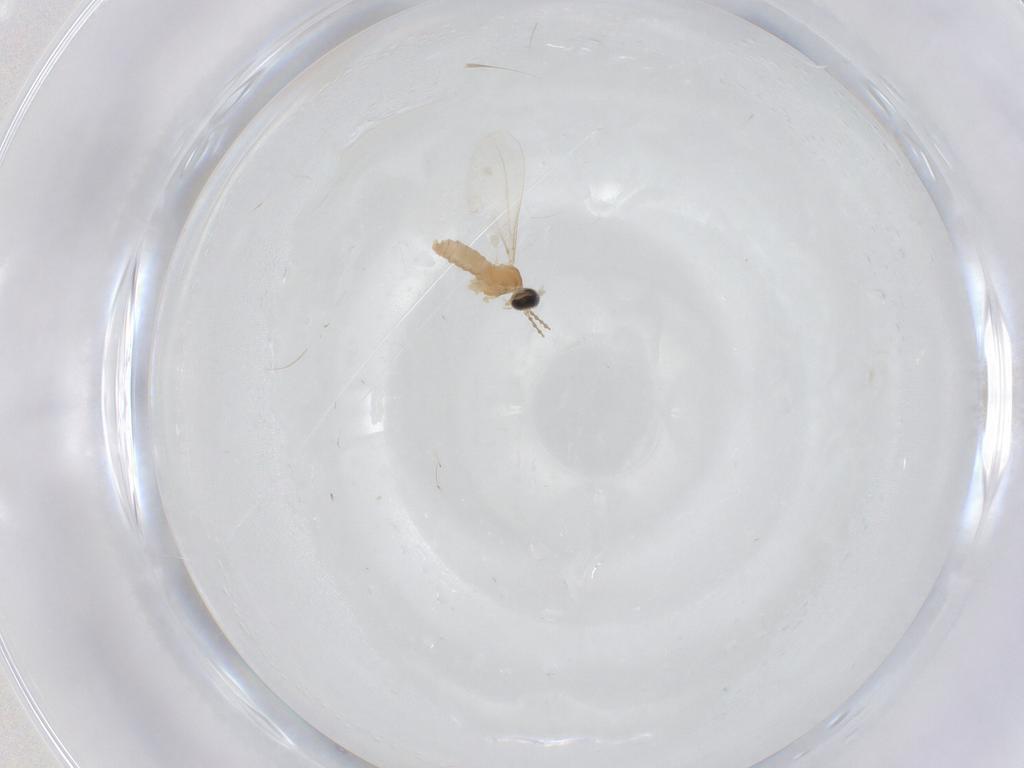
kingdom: Animalia
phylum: Arthropoda
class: Insecta
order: Diptera
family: Cecidomyiidae
